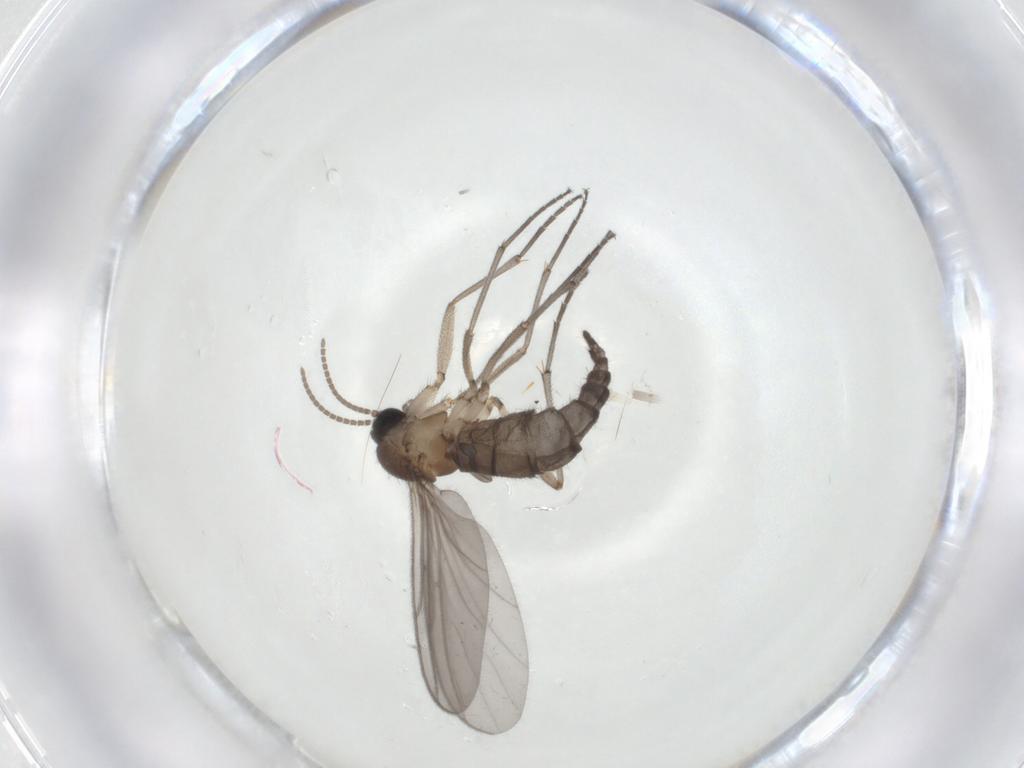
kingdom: Animalia
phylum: Arthropoda
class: Insecta
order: Diptera
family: Cecidomyiidae
